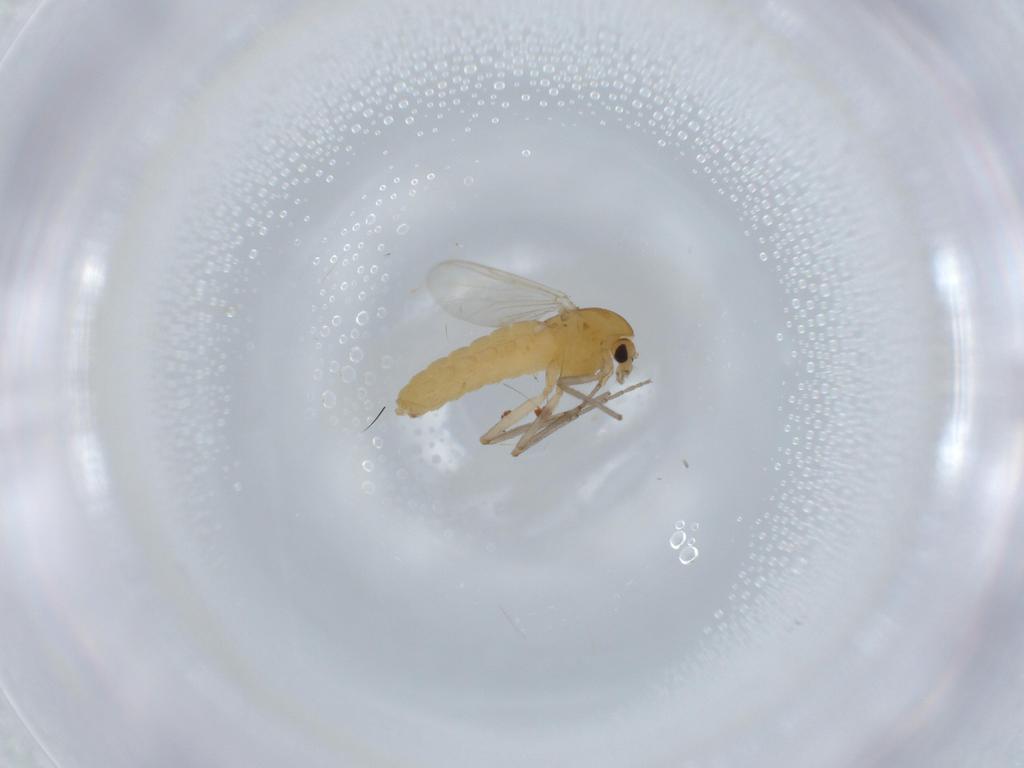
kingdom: Animalia
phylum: Arthropoda
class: Insecta
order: Diptera
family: Chironomidae
